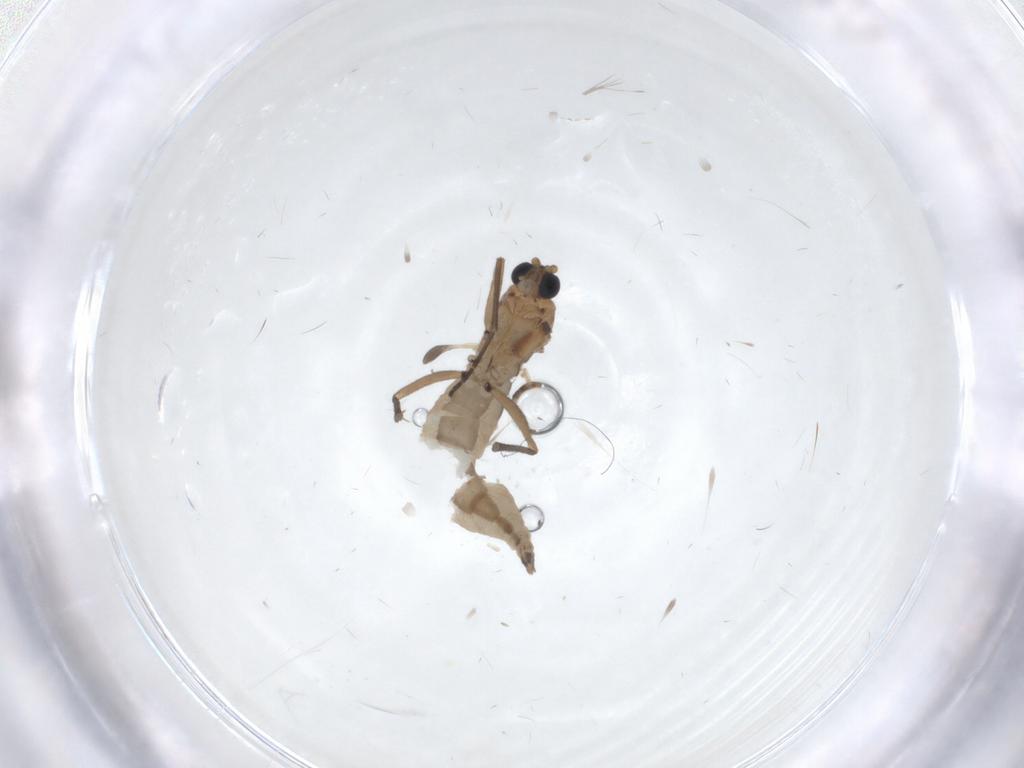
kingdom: Animalia
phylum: Arthropoda
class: Insecta
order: Diptera
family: Sciaridae
